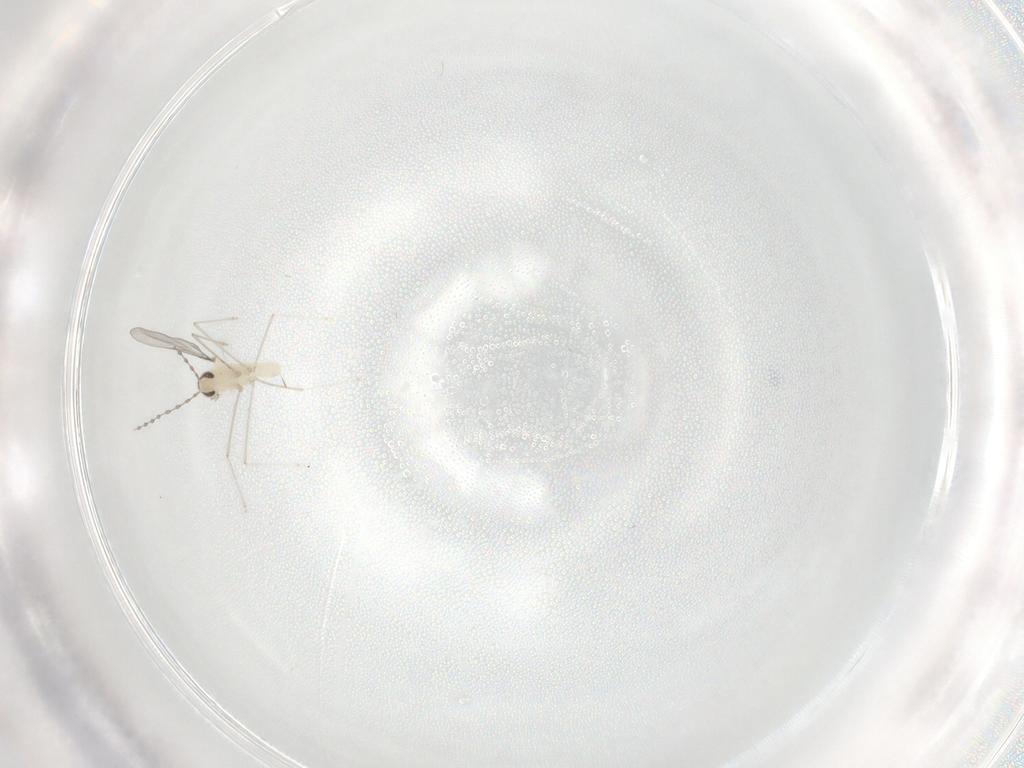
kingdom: Animalia
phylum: Arthropoda
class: Insecta
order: Diptera
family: Cecidomyiidae
